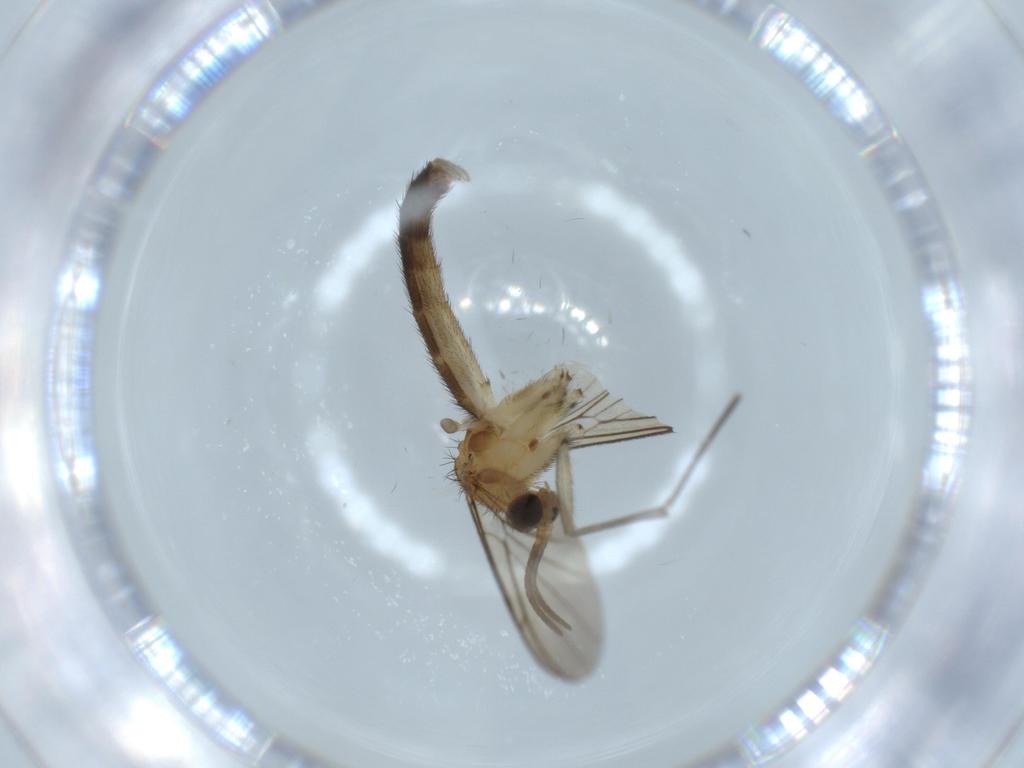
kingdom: Animalia
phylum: Arthropoda
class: Insecta
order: Diptera
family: Keroplatidae
